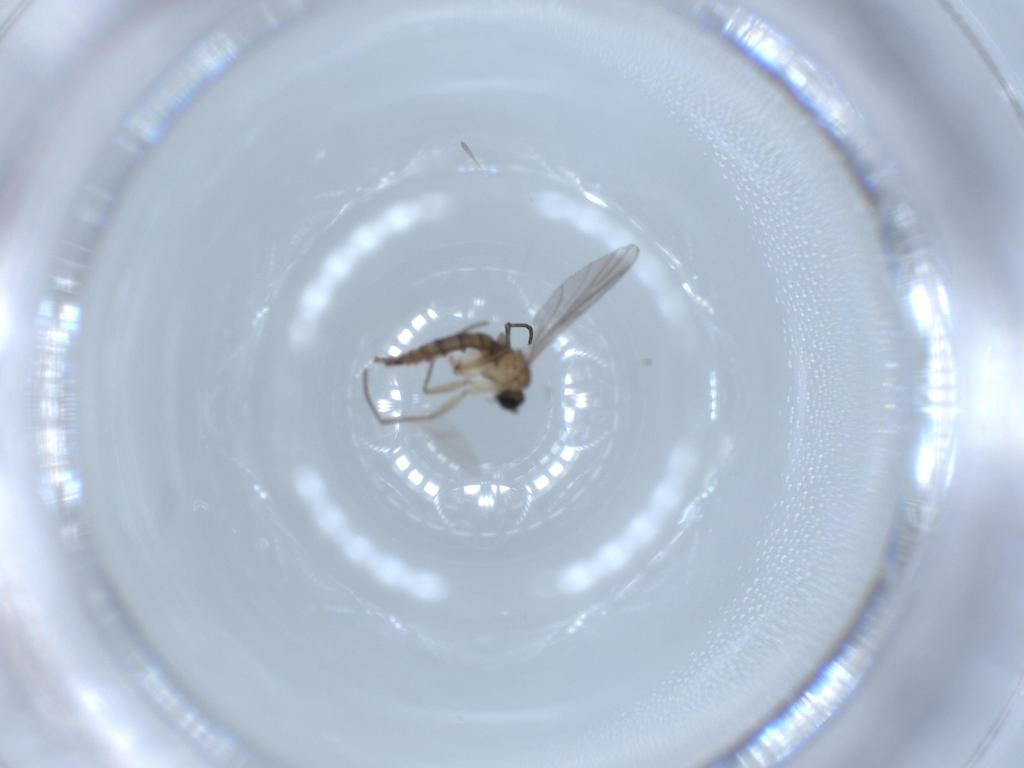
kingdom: Animalia
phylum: Arthropoda
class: Insecta
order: Diptera
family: Sciaridae
